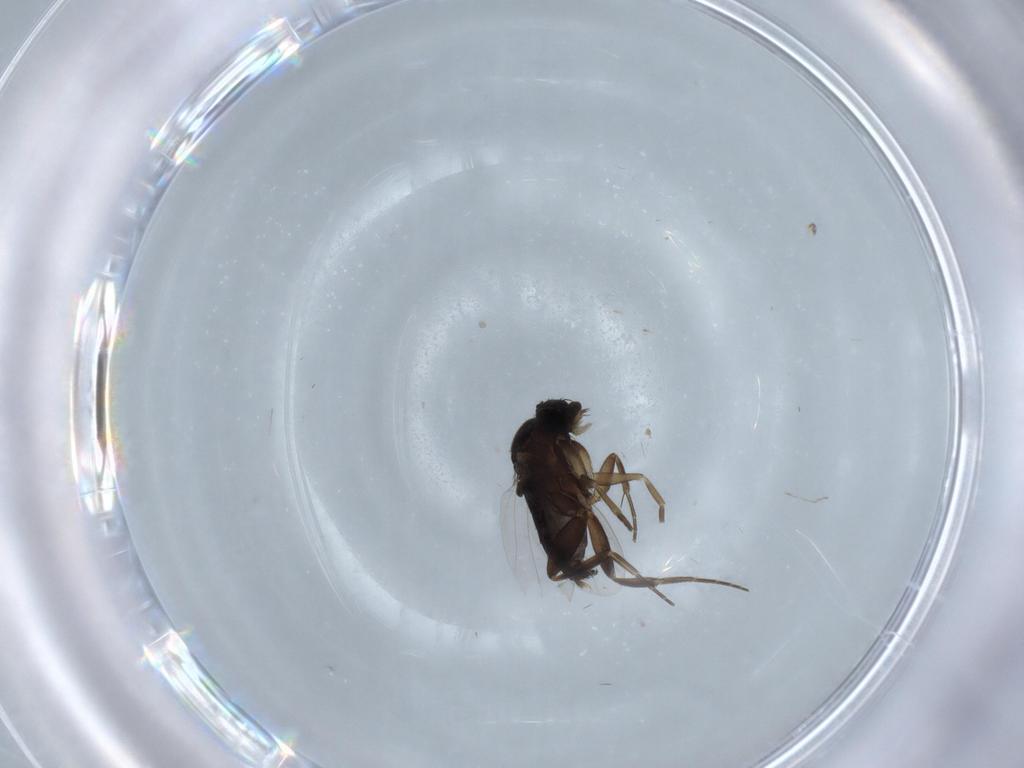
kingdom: Animalia
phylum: Arthropoda
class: Insecta
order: Diptera
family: Phoridae
